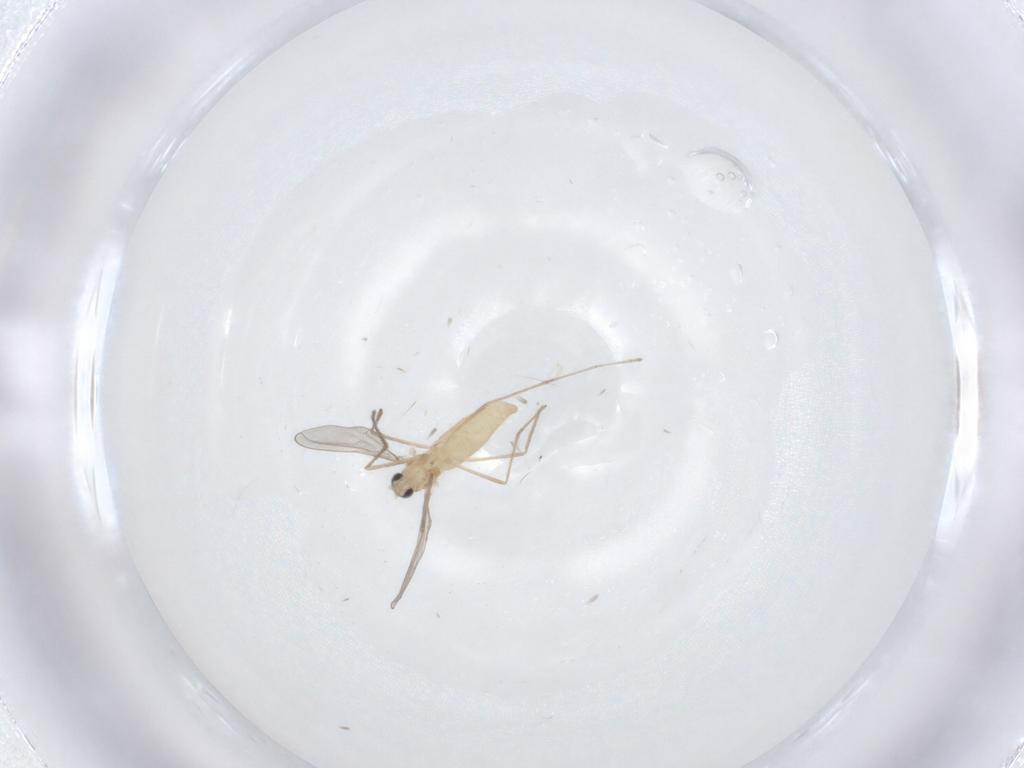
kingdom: Animalia
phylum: Arthropoda
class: Insecta
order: Diptera
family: Cecidomyiidae
